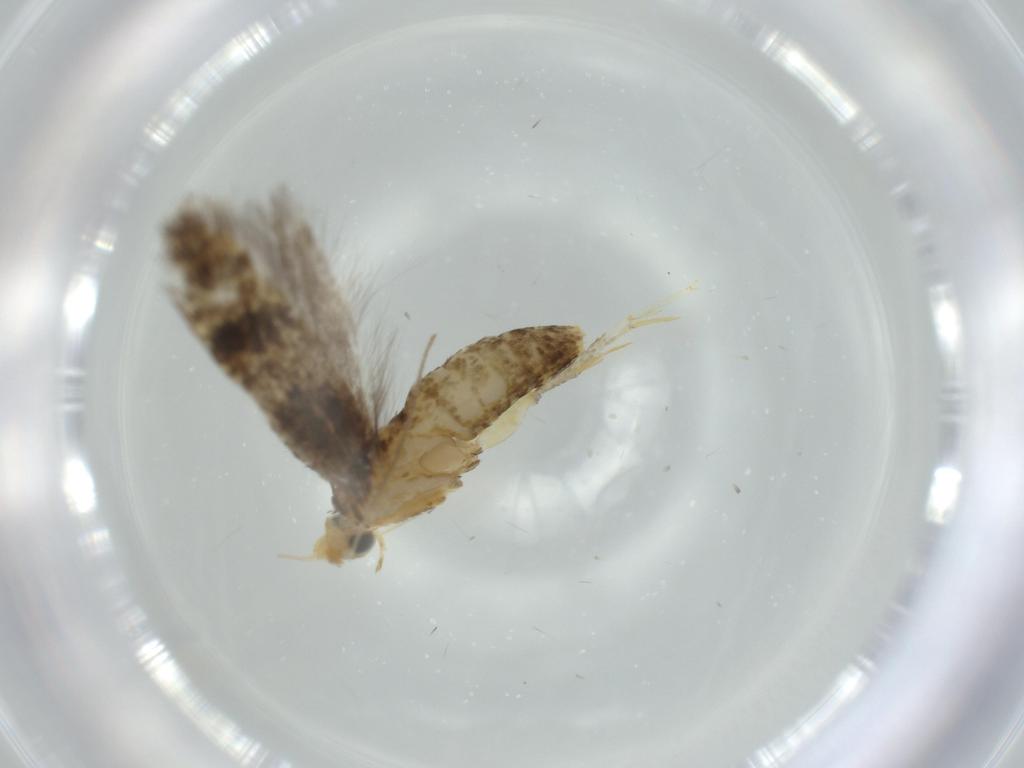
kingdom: Animalia
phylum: Arthropoda
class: Insecta
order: Lepidoptera
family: Argyresthiidae
